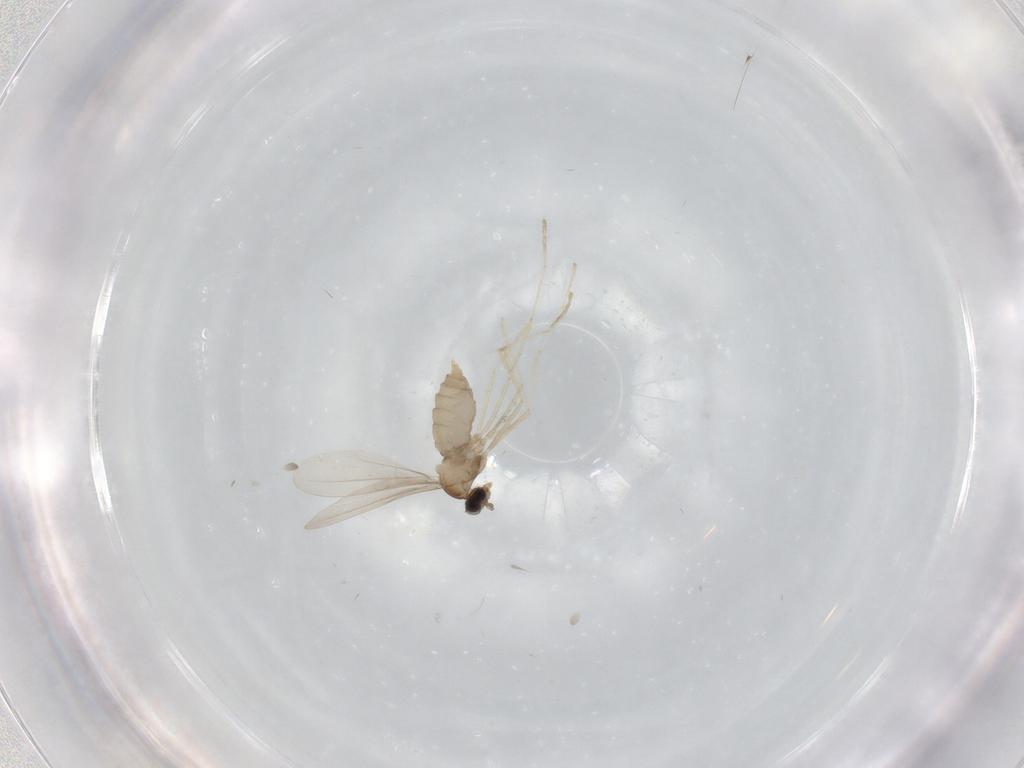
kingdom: Animalia
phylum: Arthropoda
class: Insecta
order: Diptera
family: Cecidomyiidae
